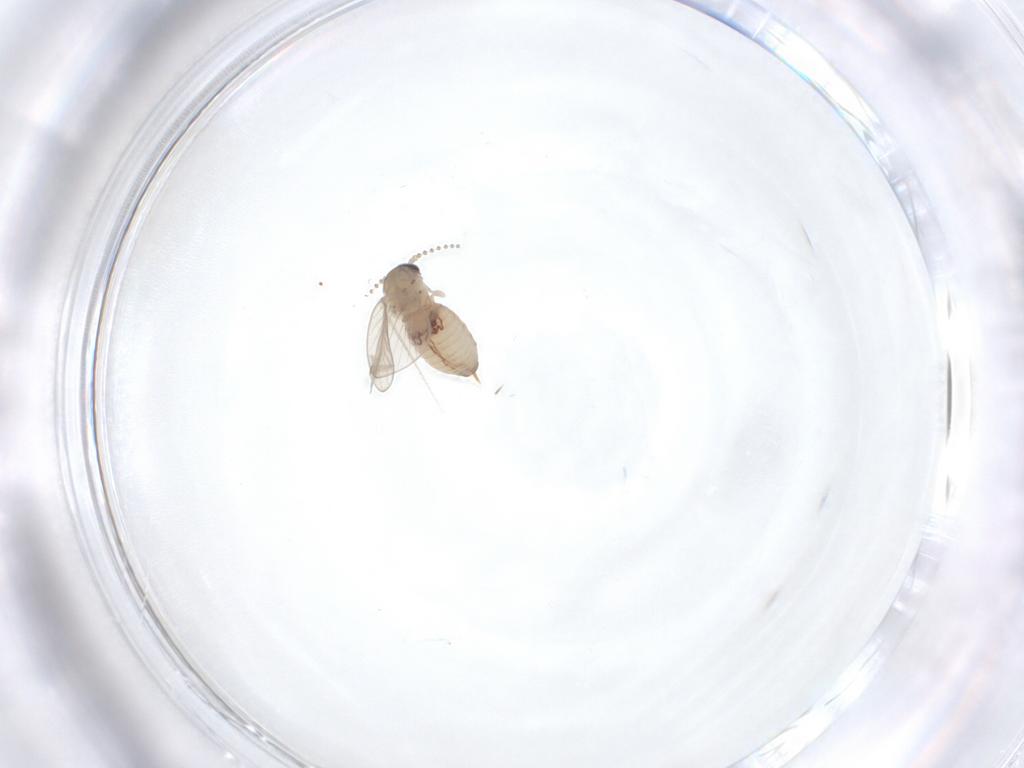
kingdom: Animalia
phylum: Arthropoda
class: Insecta
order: Diptera
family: Psychodidae
